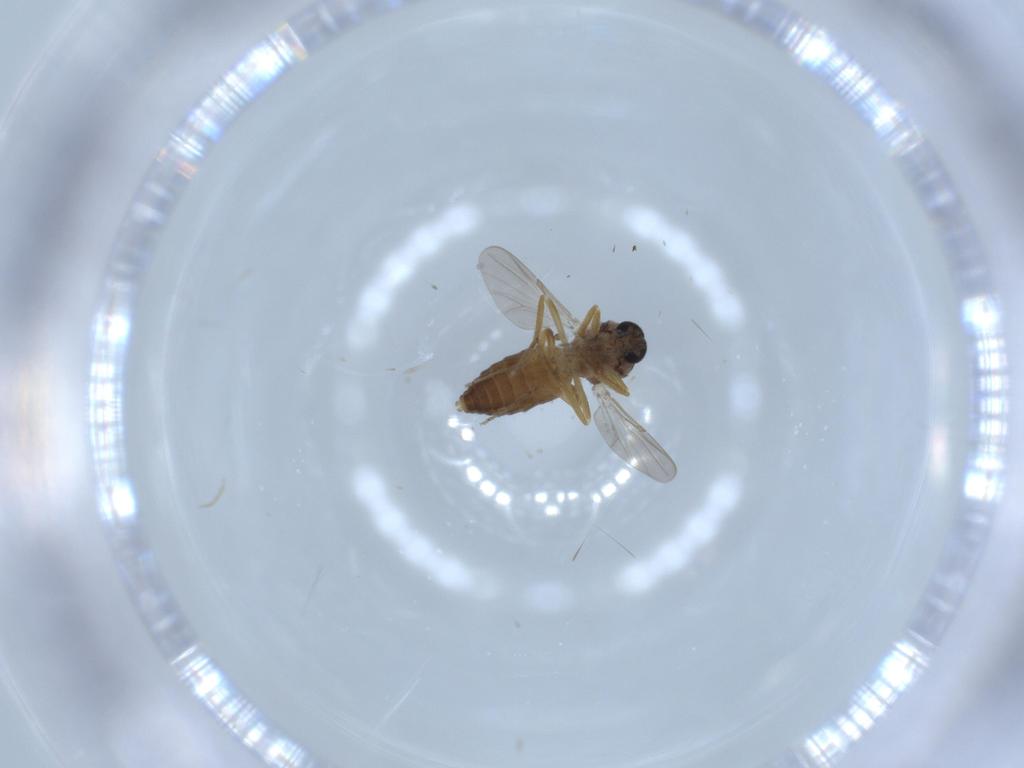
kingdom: Animalia
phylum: Arthropoda
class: Insecta
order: Diptera
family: Ceratopogonidae
